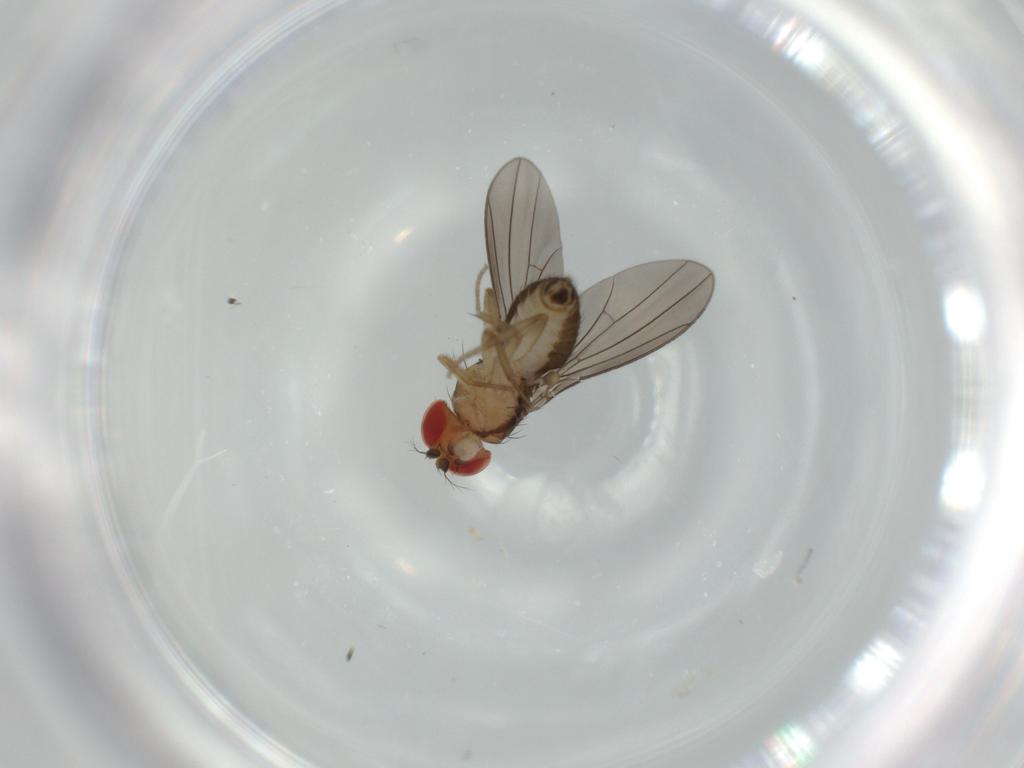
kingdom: Animalia
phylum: Arthropoda
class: Insecta
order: Diptera
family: Drosophilidae
